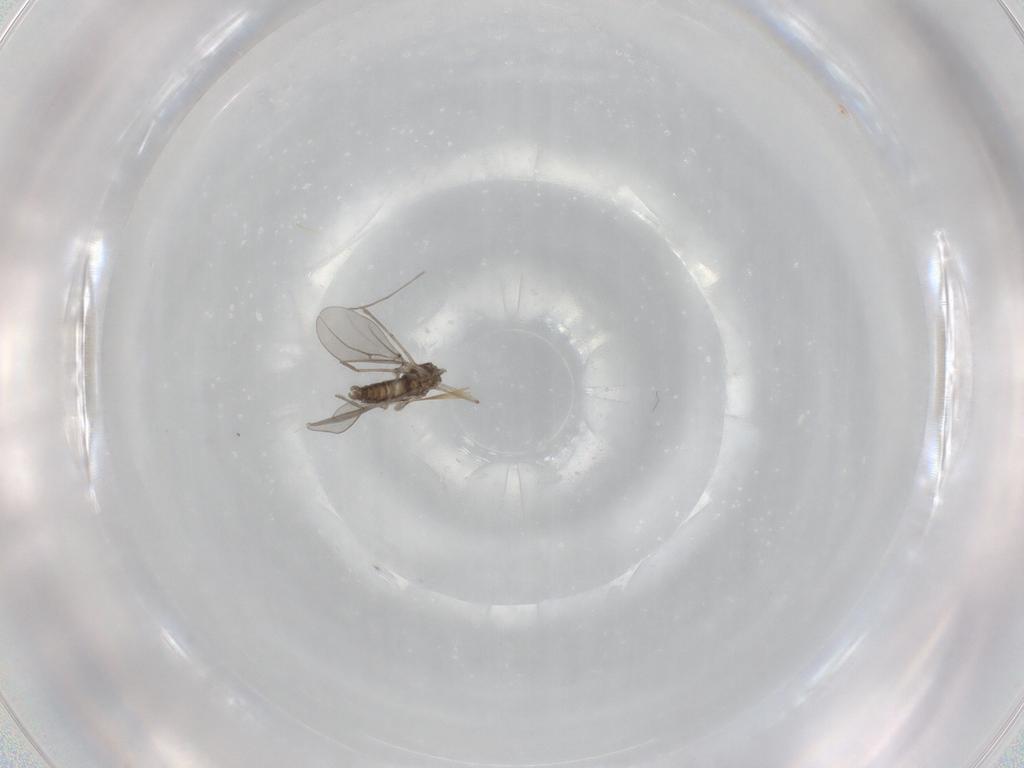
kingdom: Animalia
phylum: Arthropoda
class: Insecta
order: Diptera
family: Cecidomyiidae
